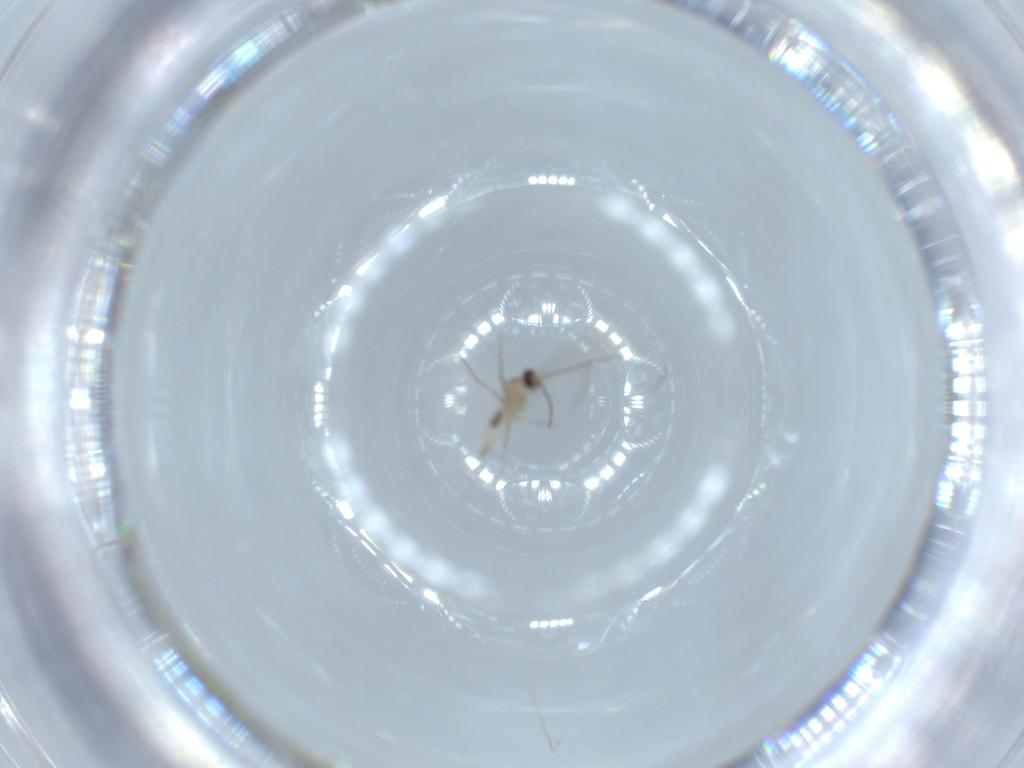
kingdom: Animalia
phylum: Arthropoda
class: Insecta
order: Diptera
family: Cecidomyiidae
